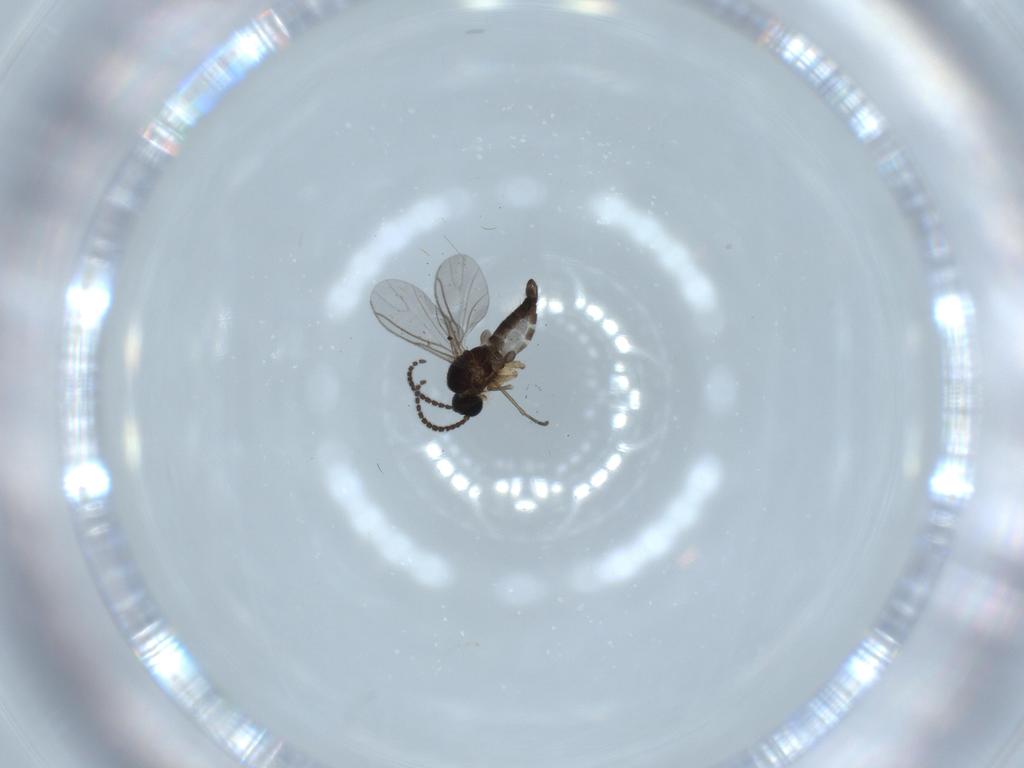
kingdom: Animalia
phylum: Arthropoda
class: Insecta
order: Diptera
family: Sciaridae
